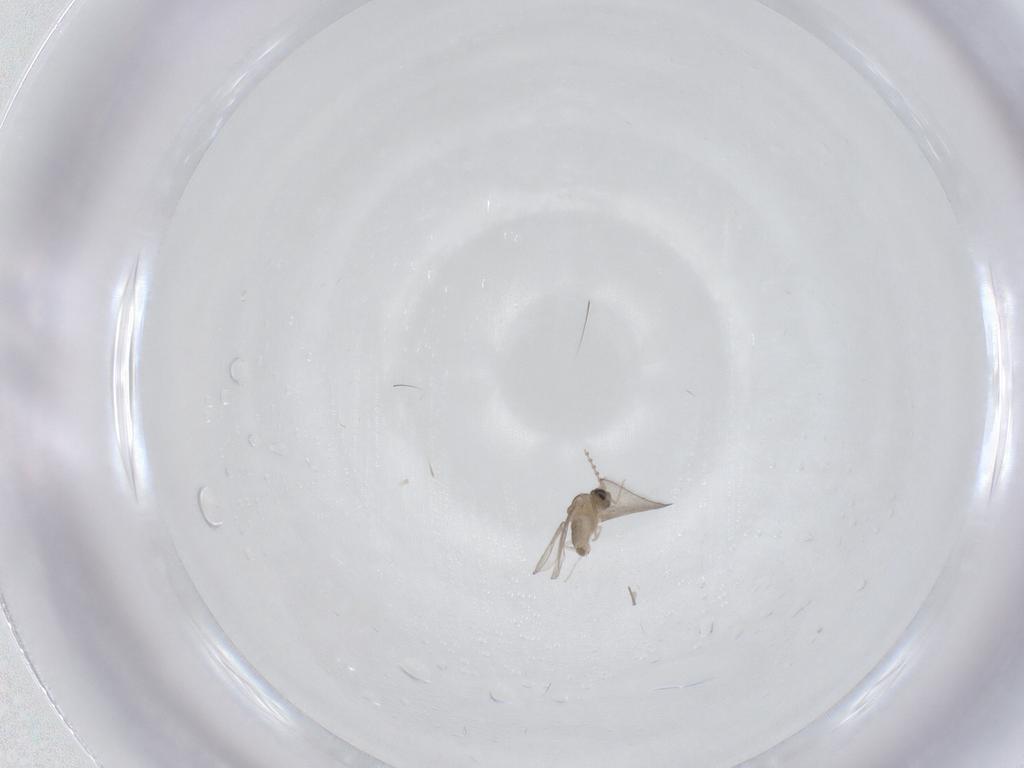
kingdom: Animalia
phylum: Arthropoda
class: Insecta
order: Diptera
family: Cecidomyiidae
